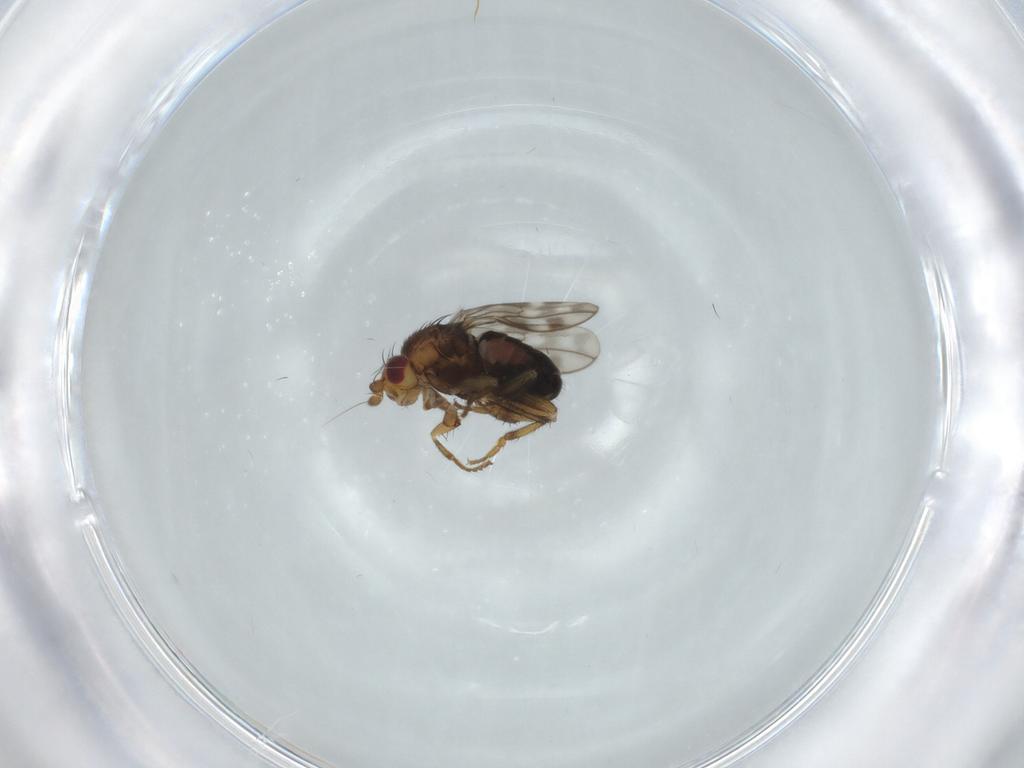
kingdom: Animalia
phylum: Arthropoda
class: Insecta
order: Diptera
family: Sphaeroceridae
